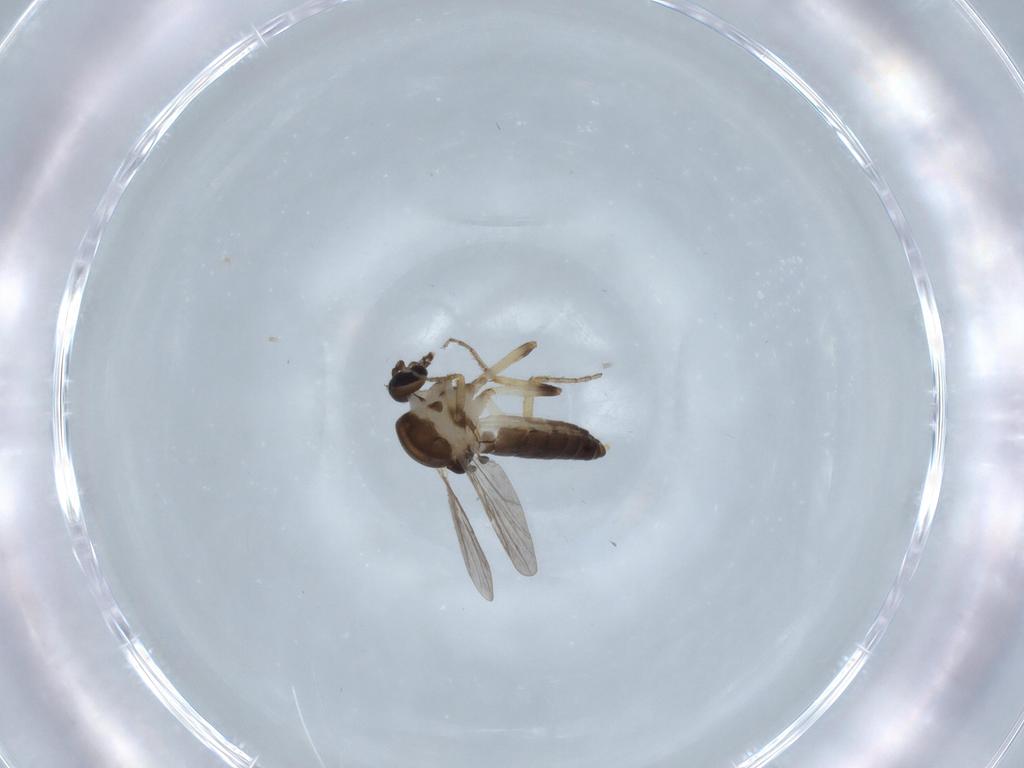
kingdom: Animalia
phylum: Arthropoda
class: Insecta
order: Diptera
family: Ceratopogonidae
